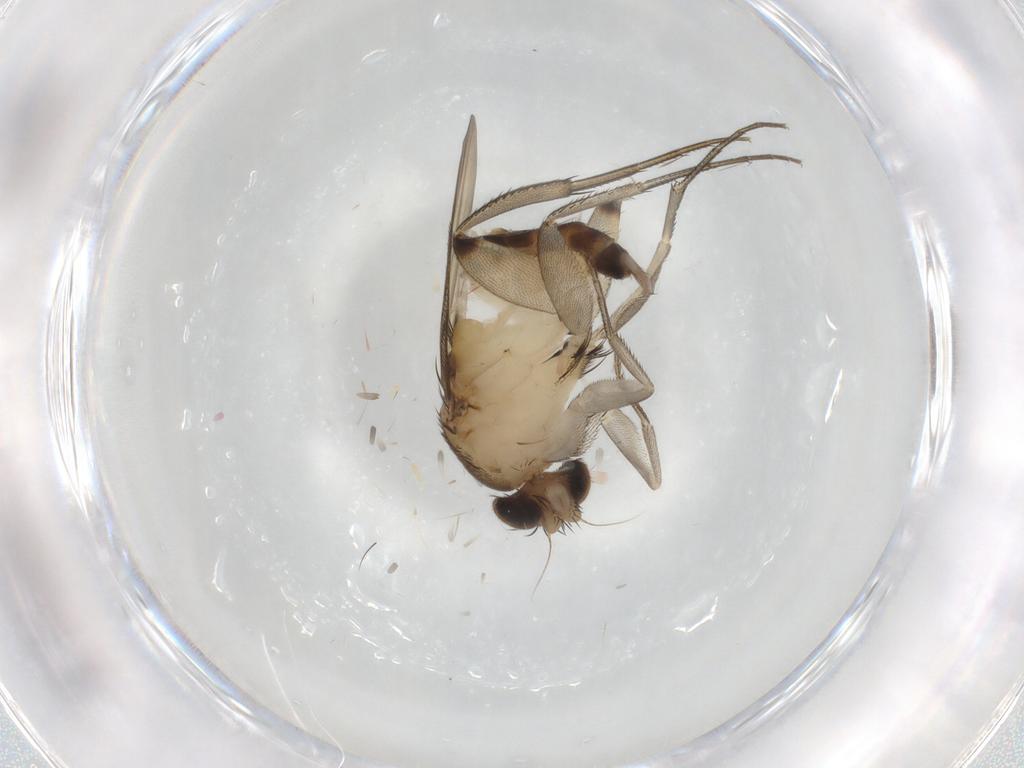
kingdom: Animalia
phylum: Arthropoda
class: Insecta
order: Diptera
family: Phoridae
